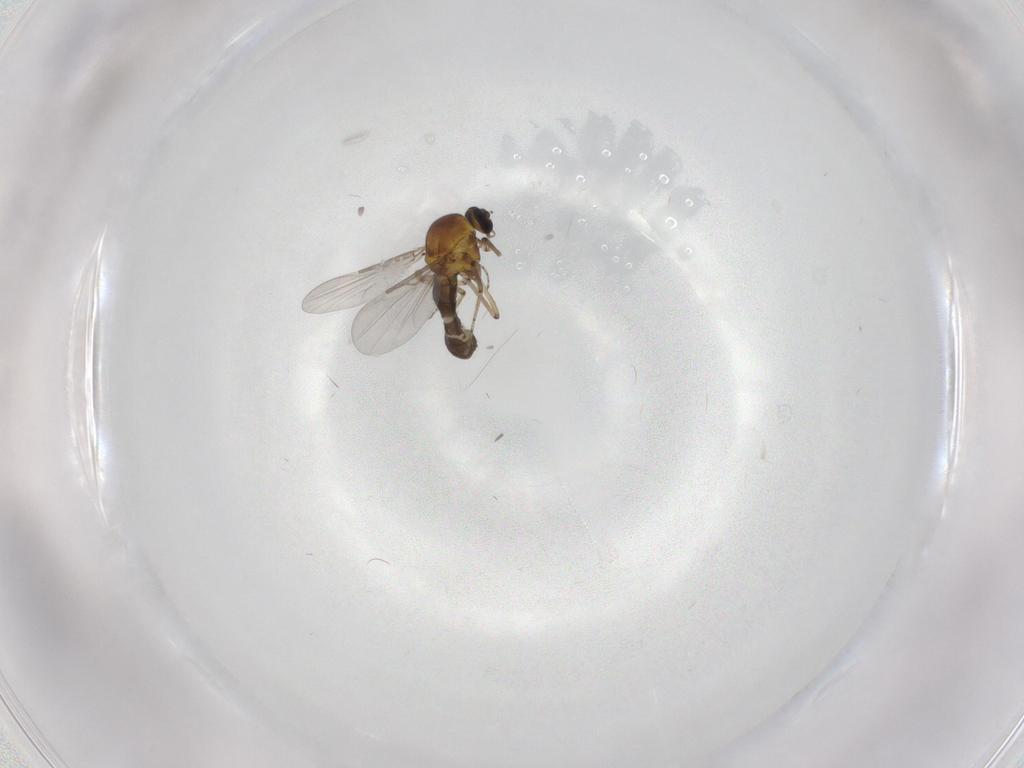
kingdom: Animalia
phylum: Arthropoda
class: Insecta
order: Diptera
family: Ceratopogonidae
